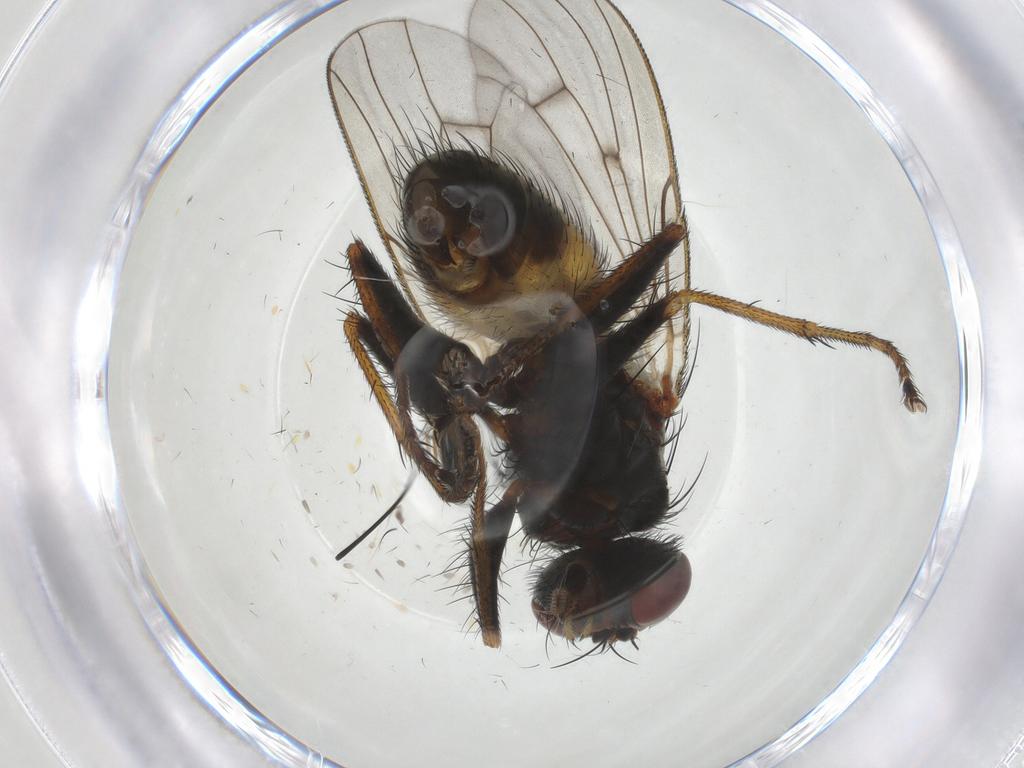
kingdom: Animalia
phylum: Arthropoda
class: Insecta
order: Diptera
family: Muscidae
